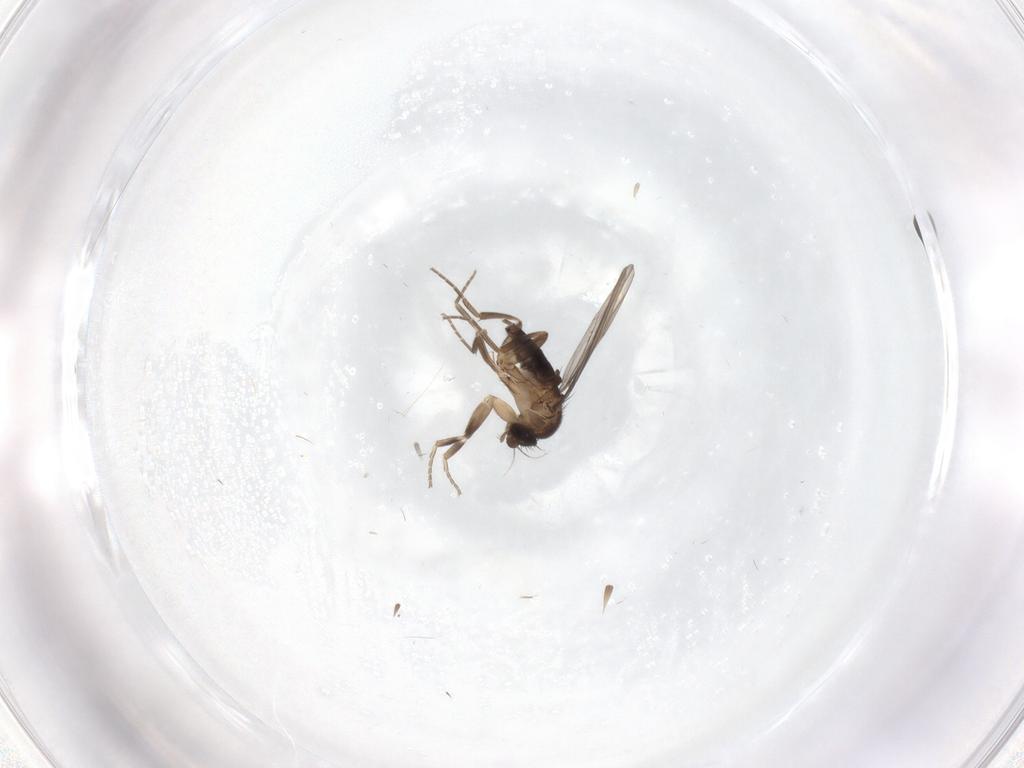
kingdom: Animalia
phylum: Arthropoda
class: Insecta
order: Diptera
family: Phoridae
